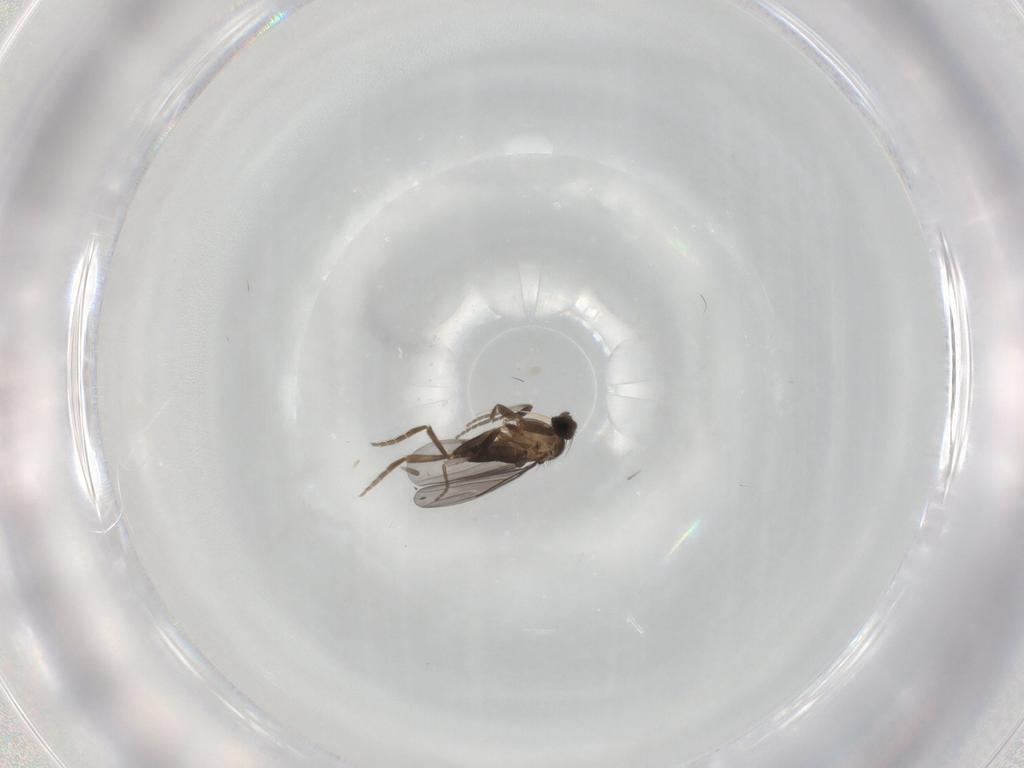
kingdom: Animalia
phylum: Arthropoda
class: Insecta
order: Diptera
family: Phoridae
